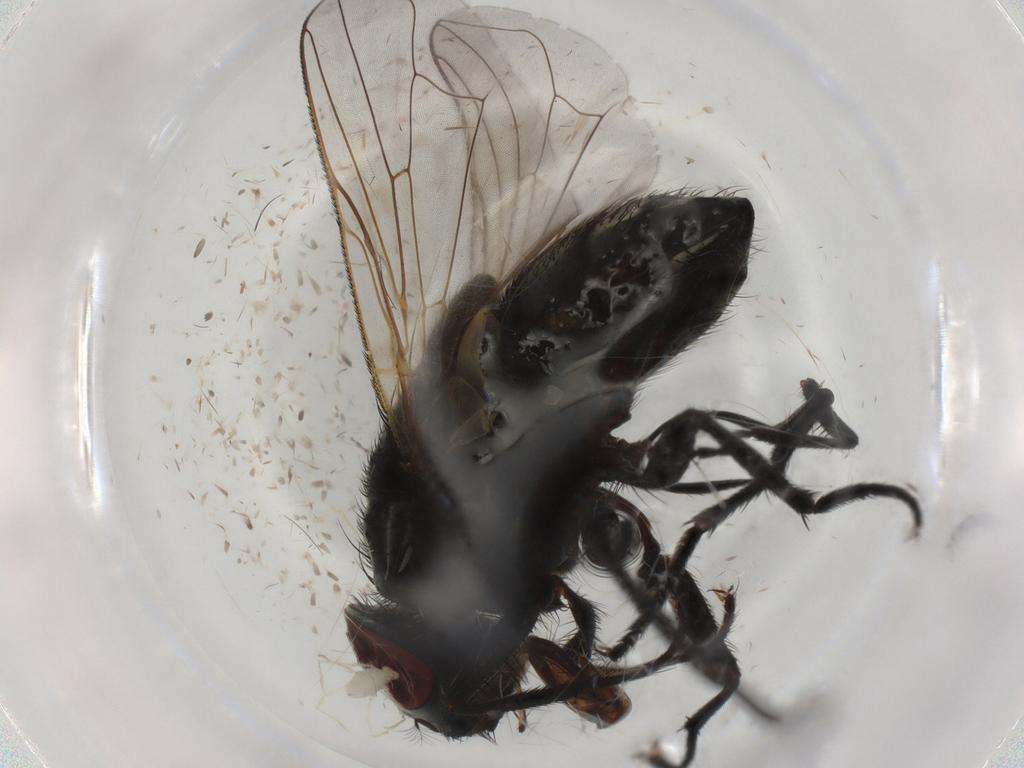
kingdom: Animalia
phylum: Arthropoda
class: Insecta
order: Diptera
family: Muscidae
